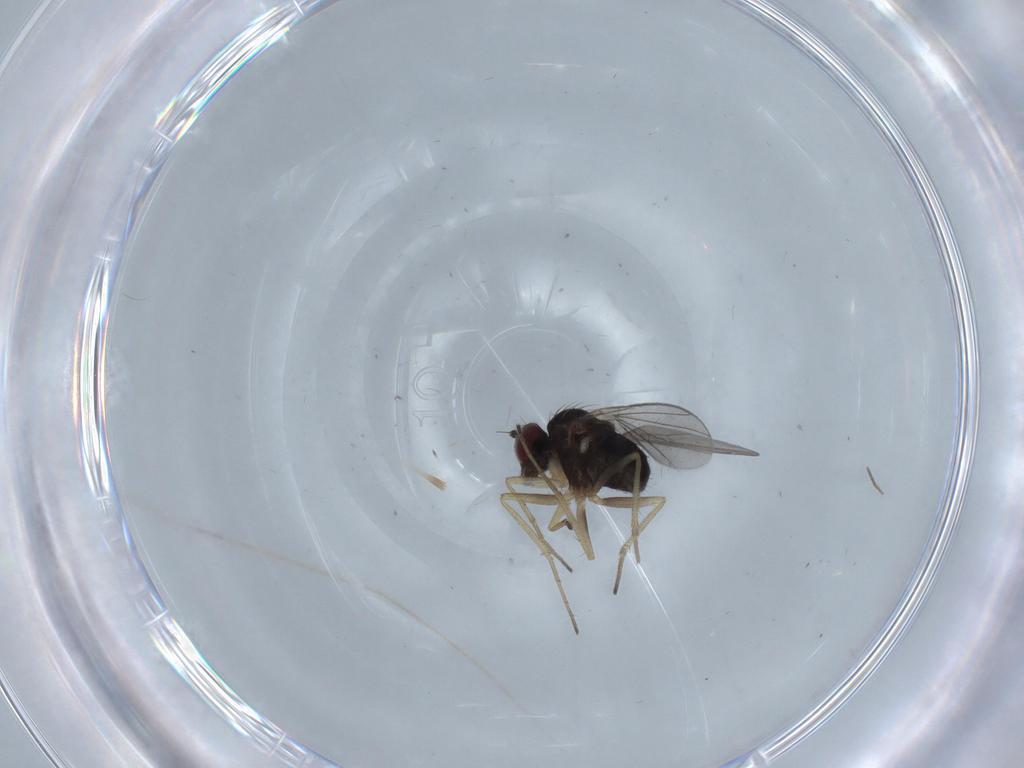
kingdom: Animalia
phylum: Arthropoda
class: Insecta
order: Diptera
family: Dolichopodidae
